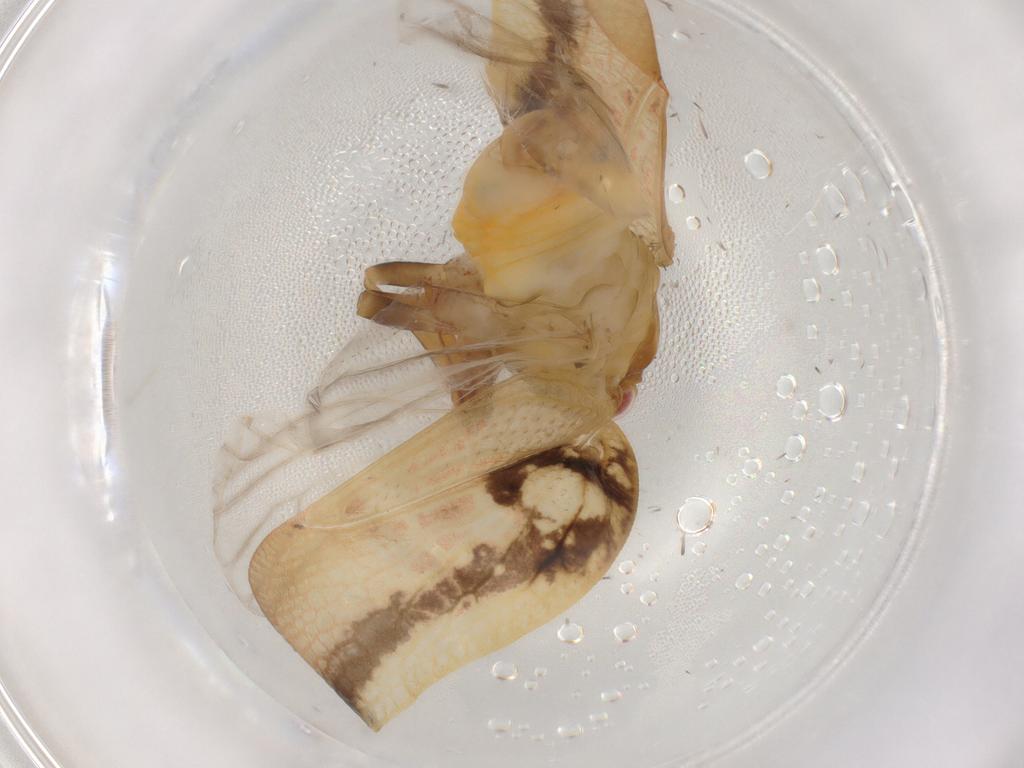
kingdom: Animalia
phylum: Arthropoda
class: Insecta
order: Hemiptera
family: Flatidae
